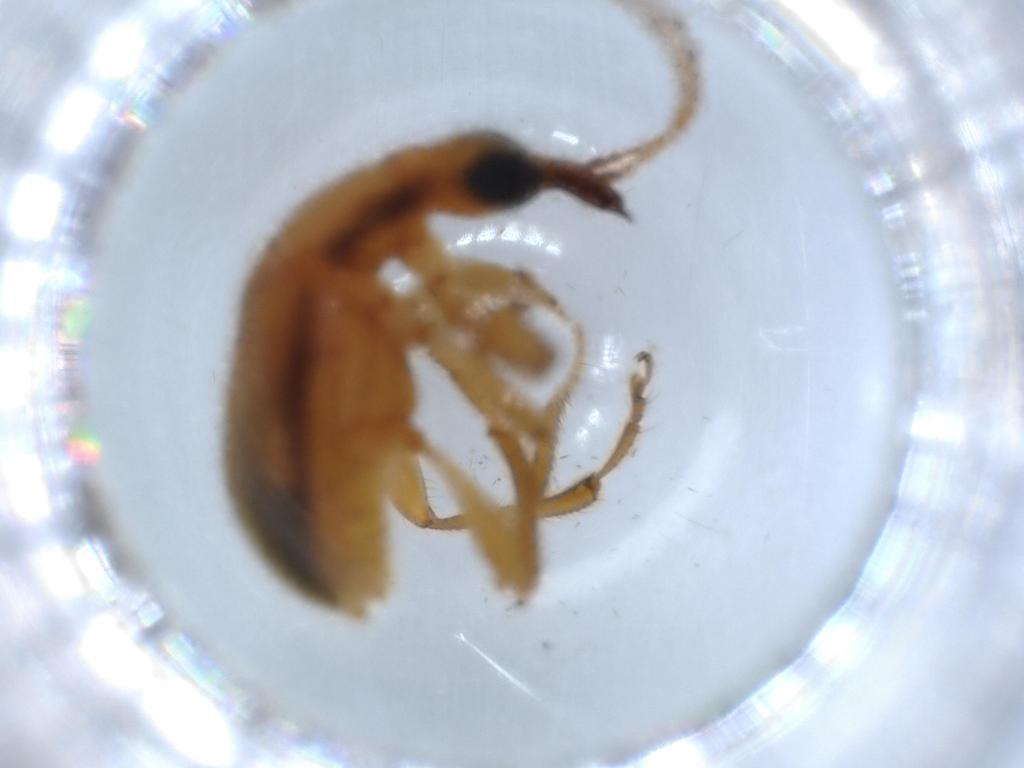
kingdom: Animalia
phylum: Arthropoda
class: Insecta
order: Coleoptera
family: Attelabidae
